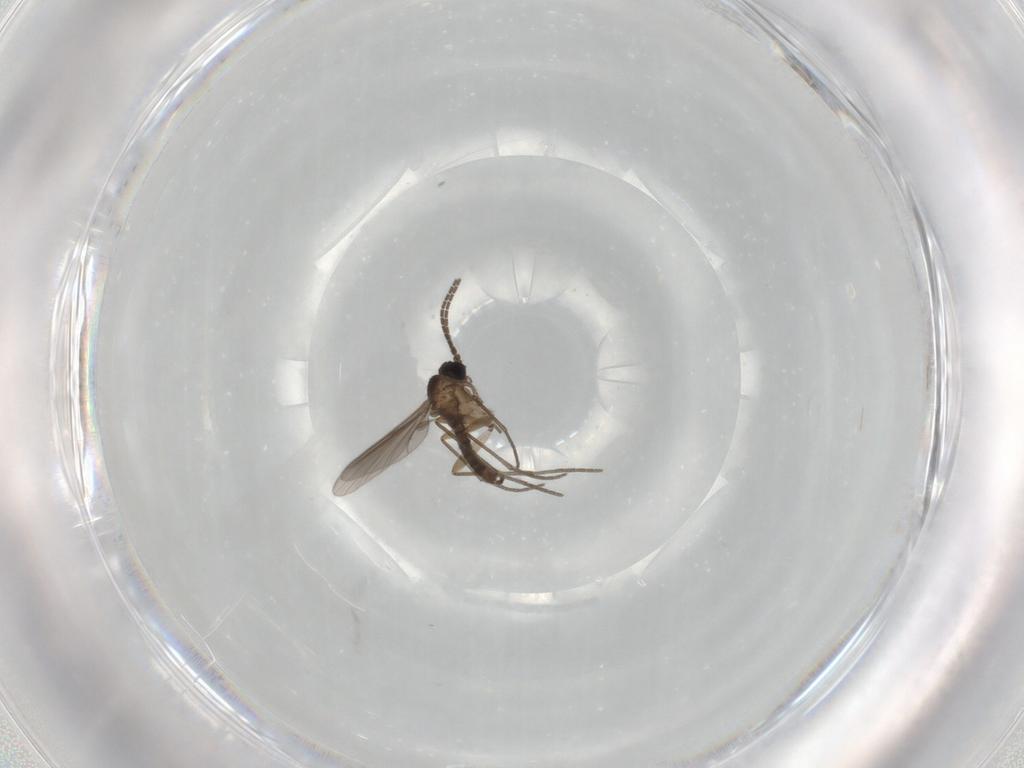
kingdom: Animalia
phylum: Arthropoda
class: Insecta
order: Diptera
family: Sciaridae
